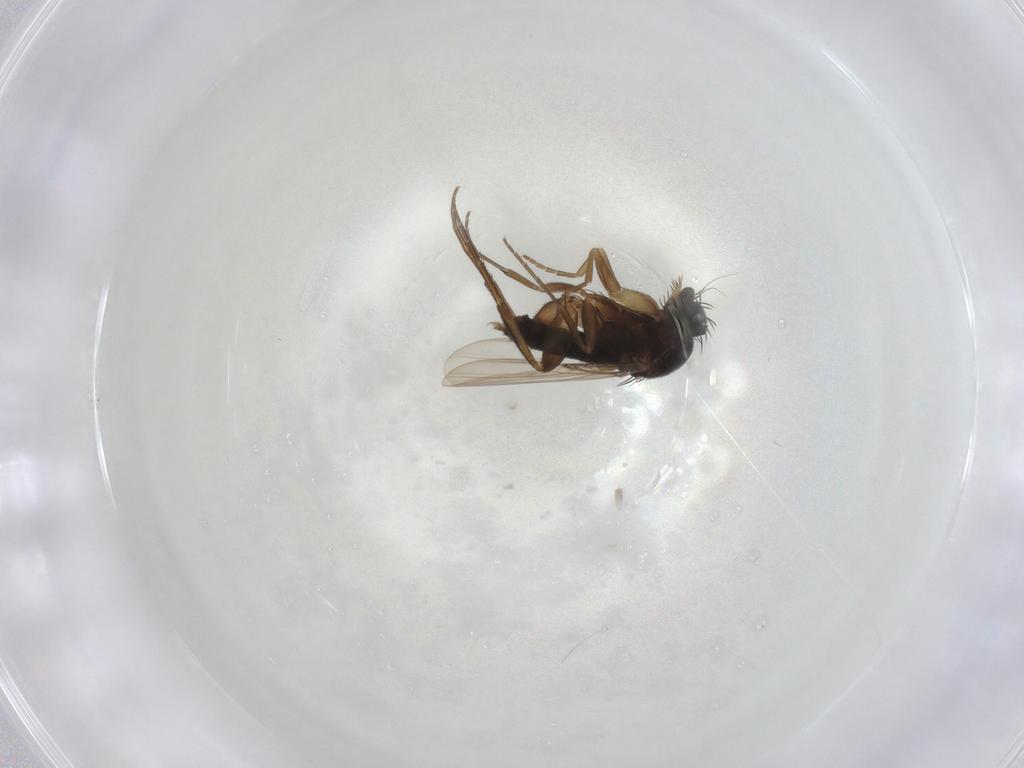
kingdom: Animalia
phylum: Arthropoda
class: Insecta
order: Diptera
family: Phoridae
